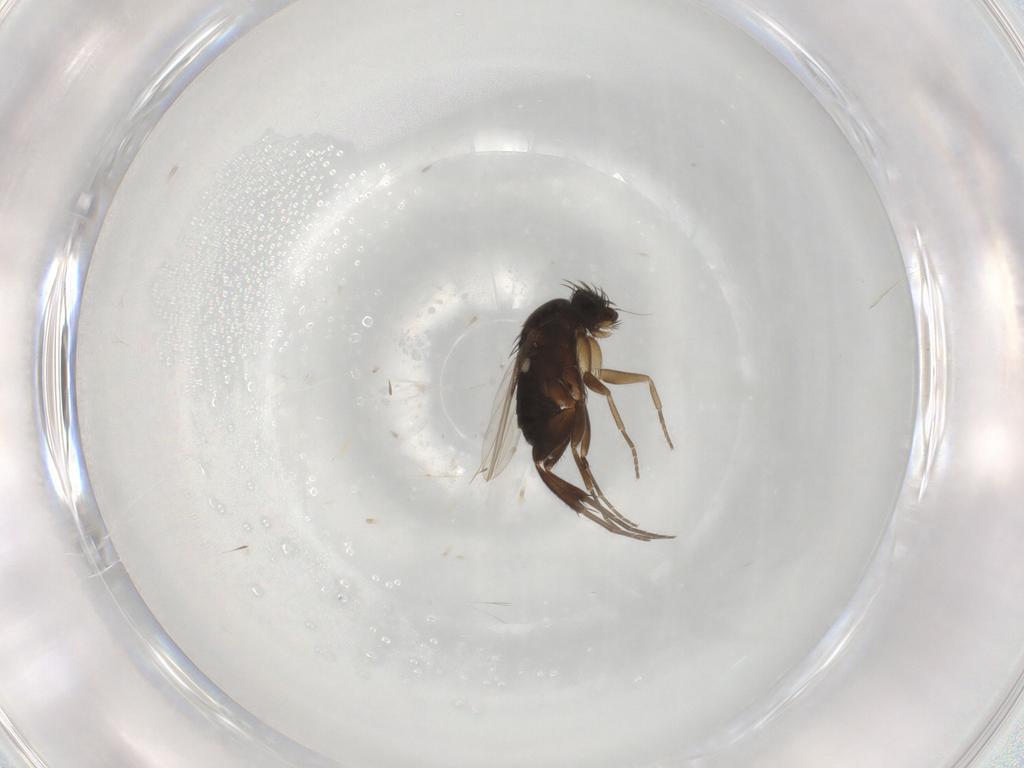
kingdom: Animalia
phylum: Arthropoda
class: Insecta
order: Diptera
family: Phoridae
